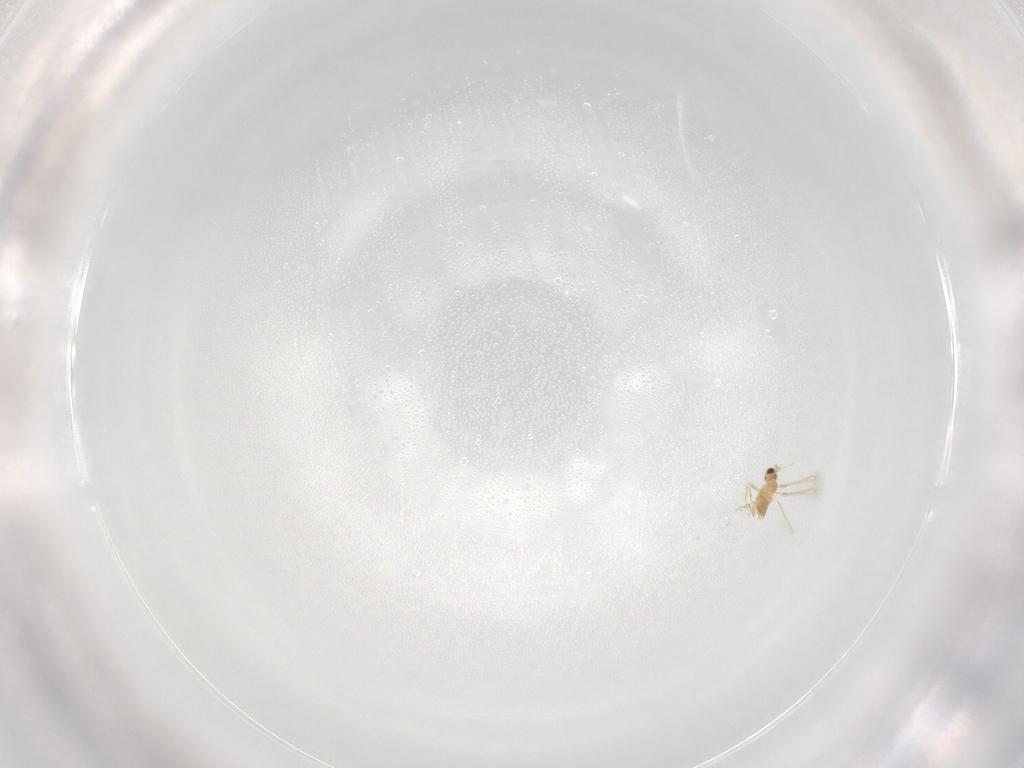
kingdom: Animalia
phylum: Arthropoda
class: Insecta
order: Hymenoptera
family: Mymaridae
